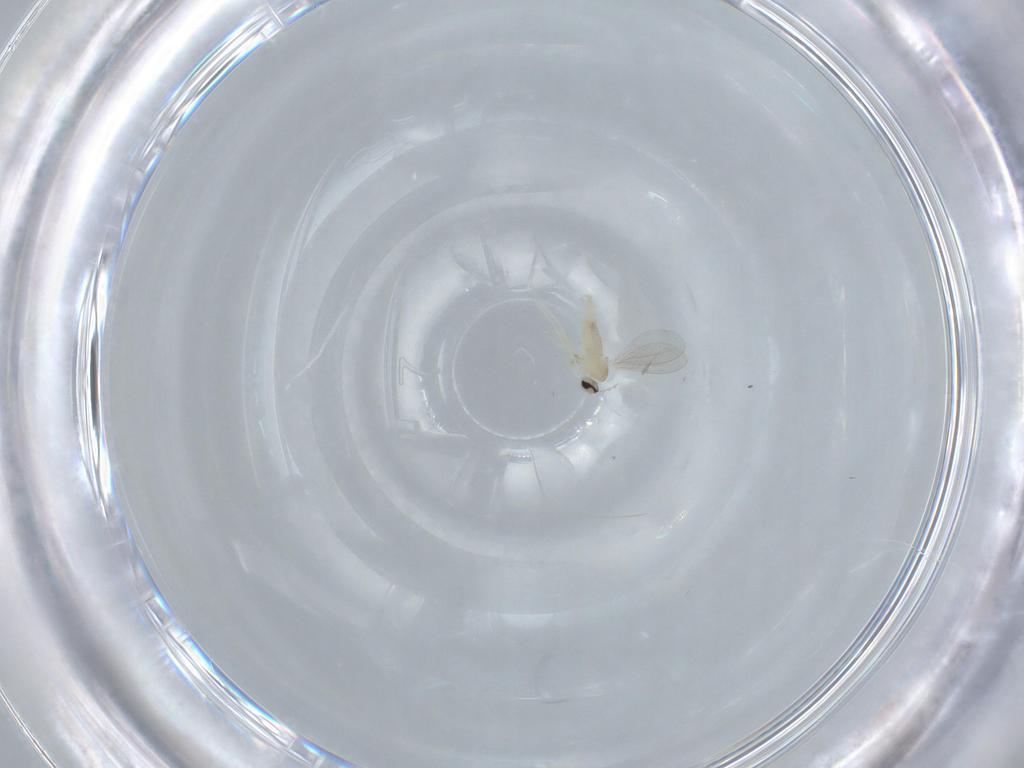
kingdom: Animalia
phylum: Arthropoda
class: Insecta
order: Diptera
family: Cecidomyiidae
